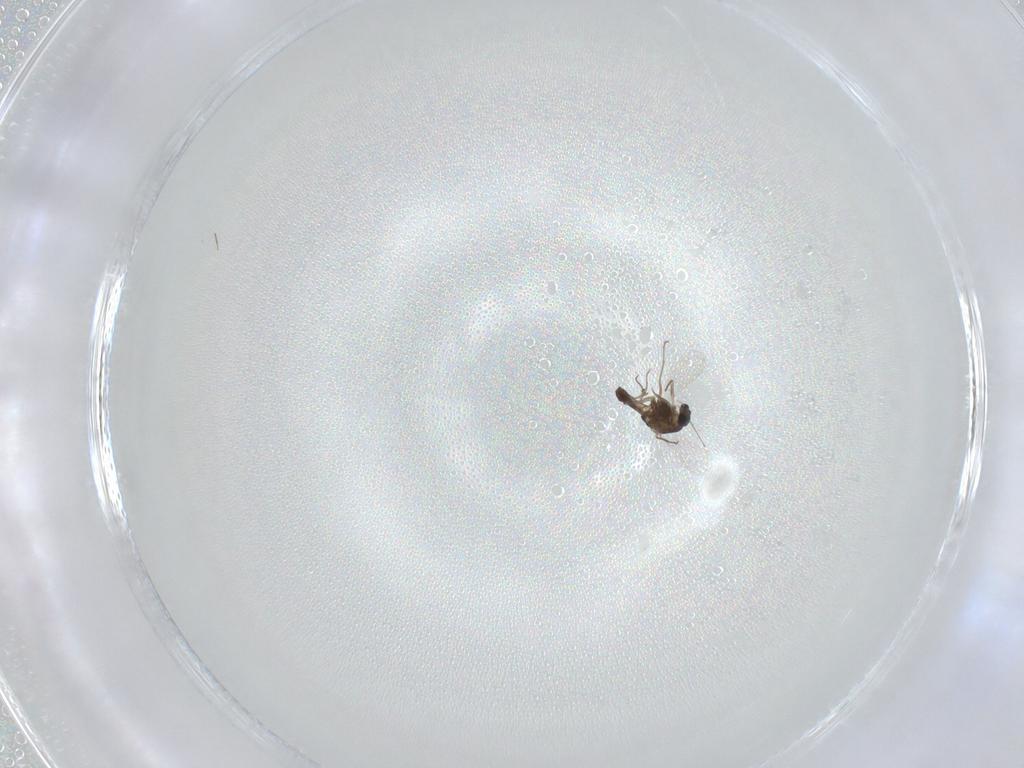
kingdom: Animalia
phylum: Arthropoda
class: Insecta
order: Diptera
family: Chironomidae
